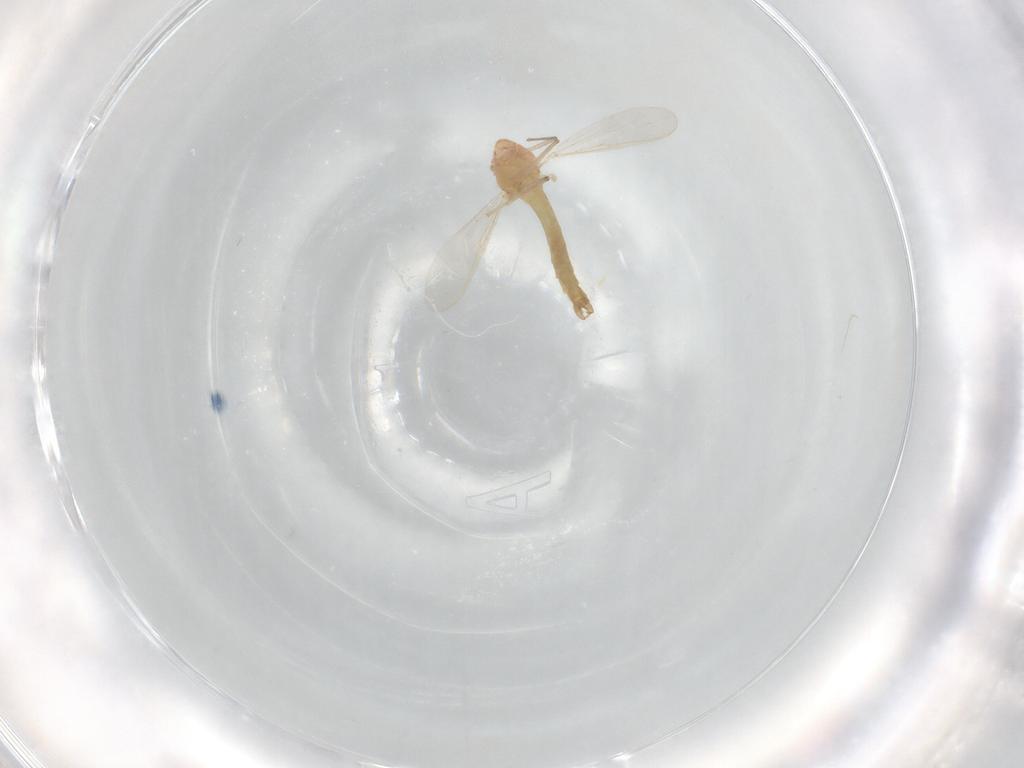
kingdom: Animalia
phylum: Arthropoda
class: Insecta
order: Diptera
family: Chironomidae
